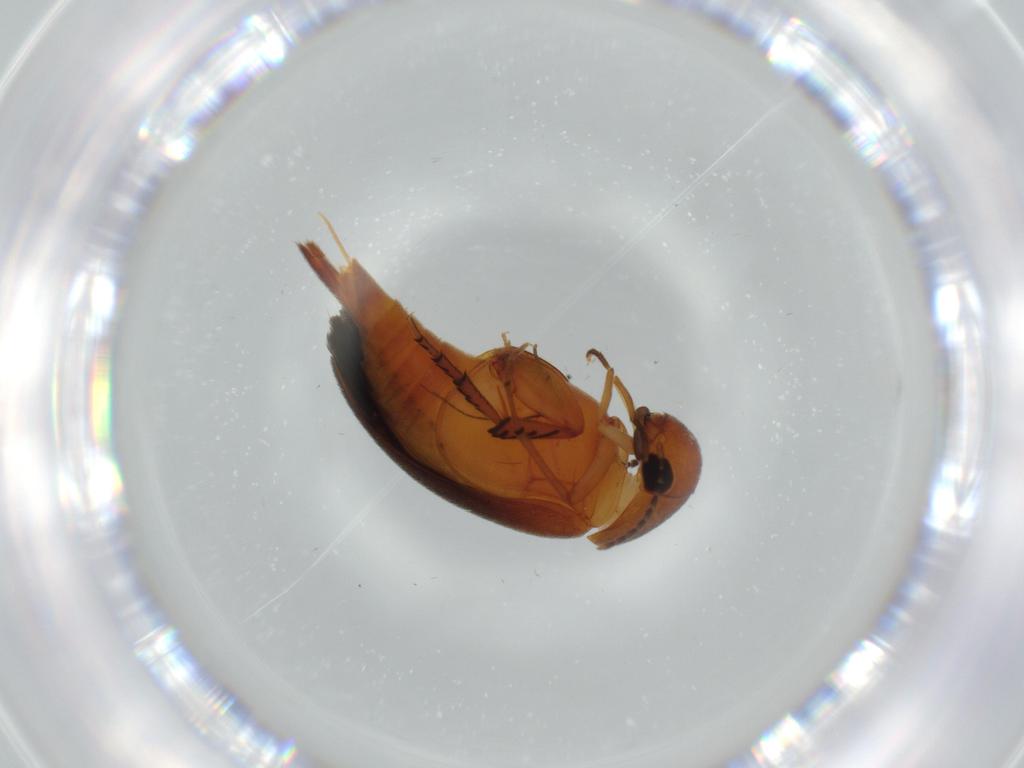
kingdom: Animalia
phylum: Arthropoda
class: Insecta
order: Coleoptera
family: Mordellidae
